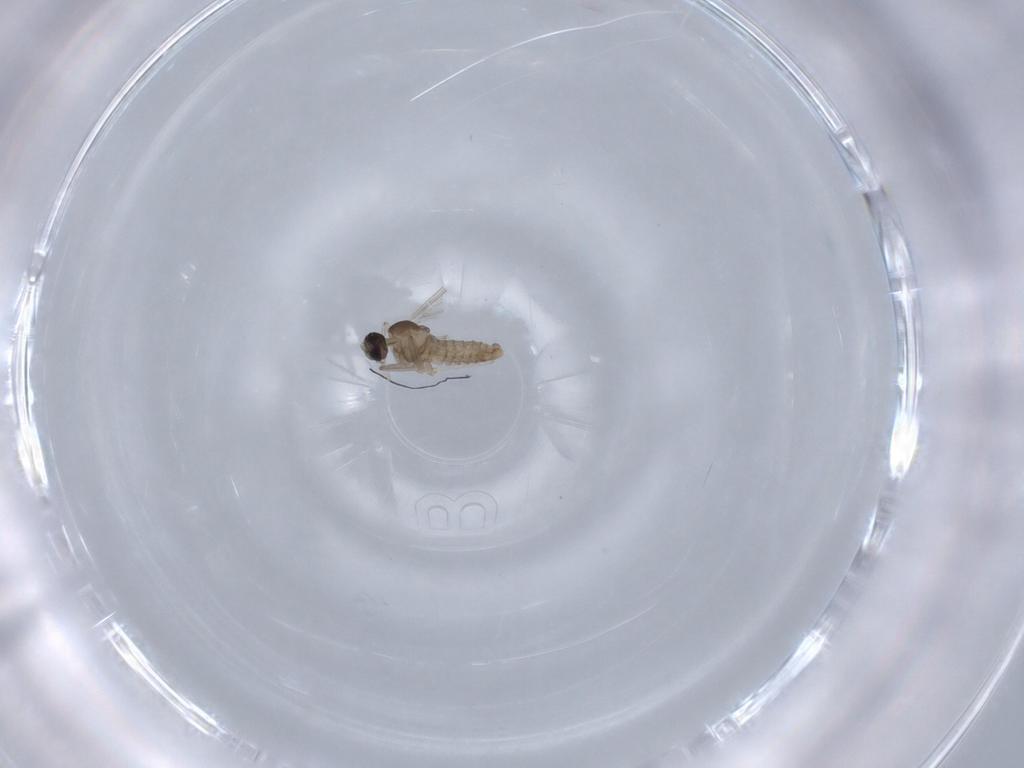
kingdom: Animalia
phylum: Arthropoda
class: Insecta
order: Diptera
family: Cecidomyiidae
